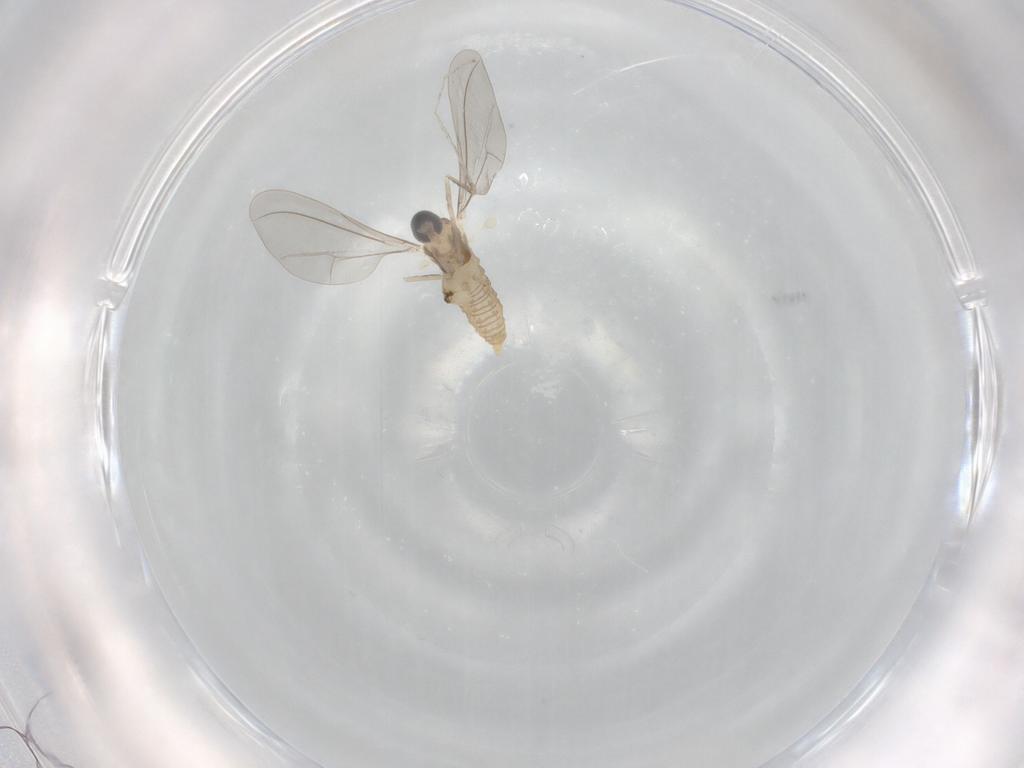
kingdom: Animalia
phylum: Arthropoda
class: Insecta
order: Diptera
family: Cecidomyiidae
